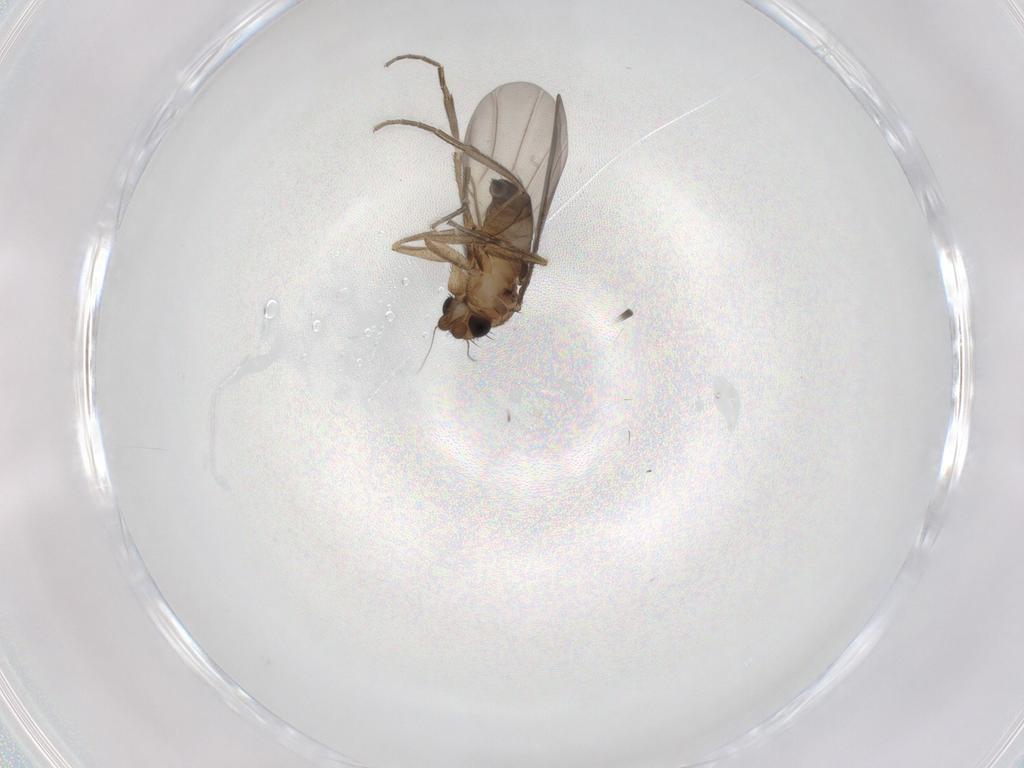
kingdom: Animalia
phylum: Arthropoda
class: Insecta
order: Diptera
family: Phoridae
